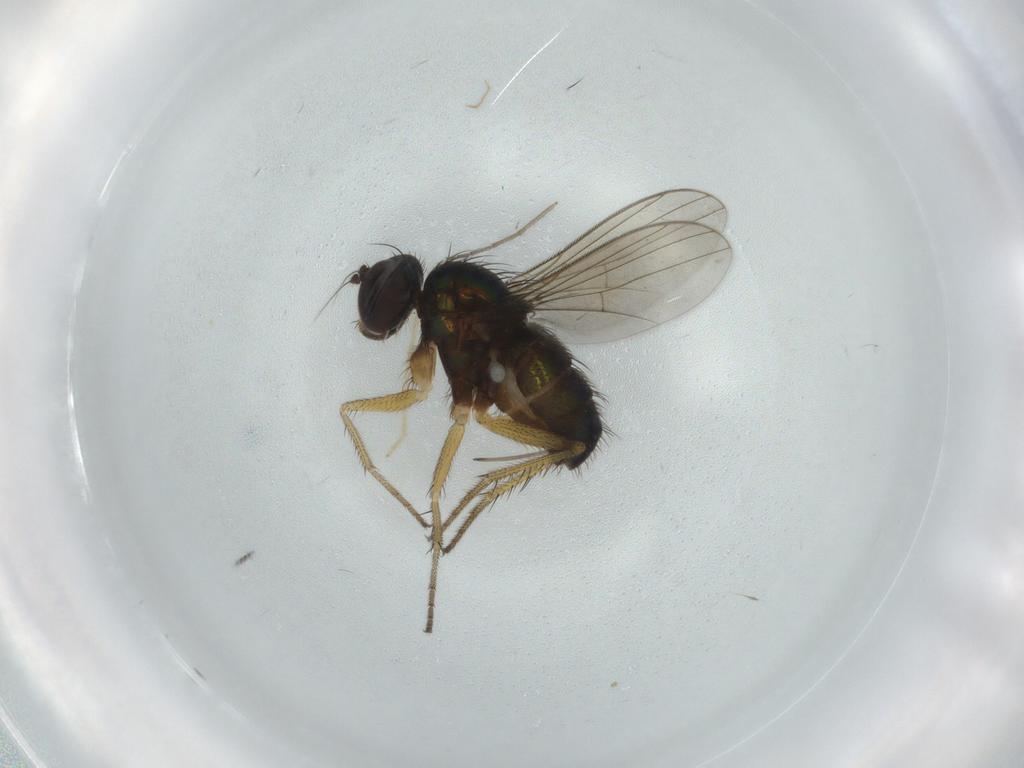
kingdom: Animalia
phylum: Arthropoda
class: Insecta
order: Diptera
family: Dolichopodidae
